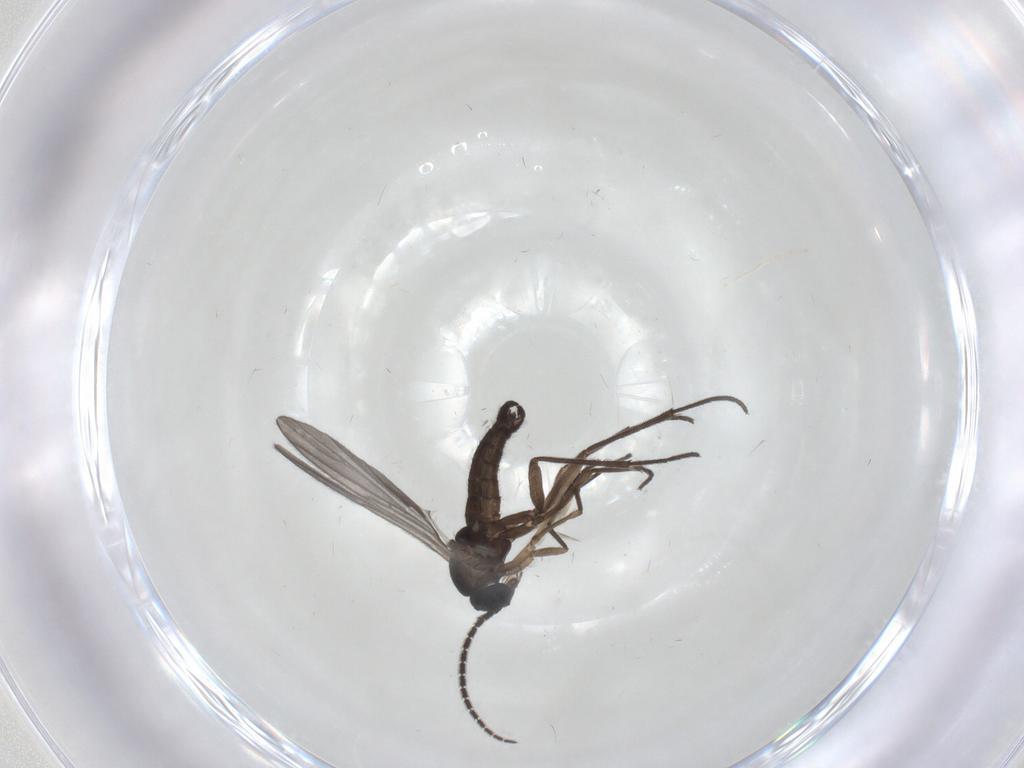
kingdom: Animalia
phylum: Arthropoda
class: Insecta
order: Diptera
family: Sciaridae
